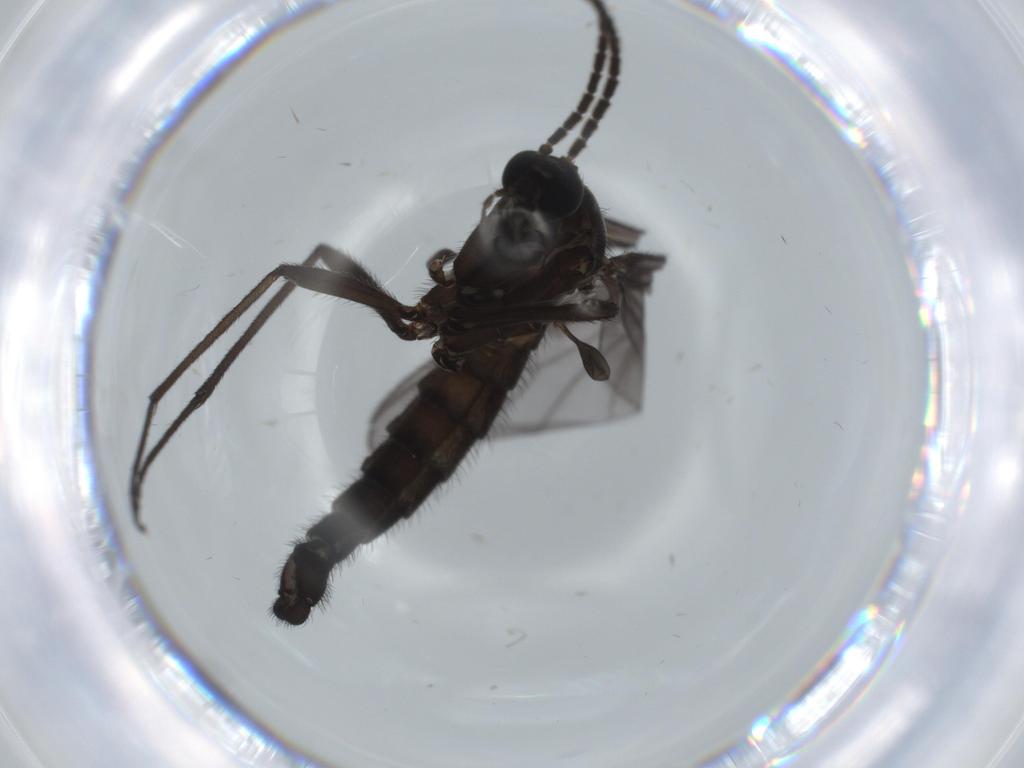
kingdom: Animalia
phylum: Arthropoda
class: Insecta
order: Diptera
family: Sciaridae
